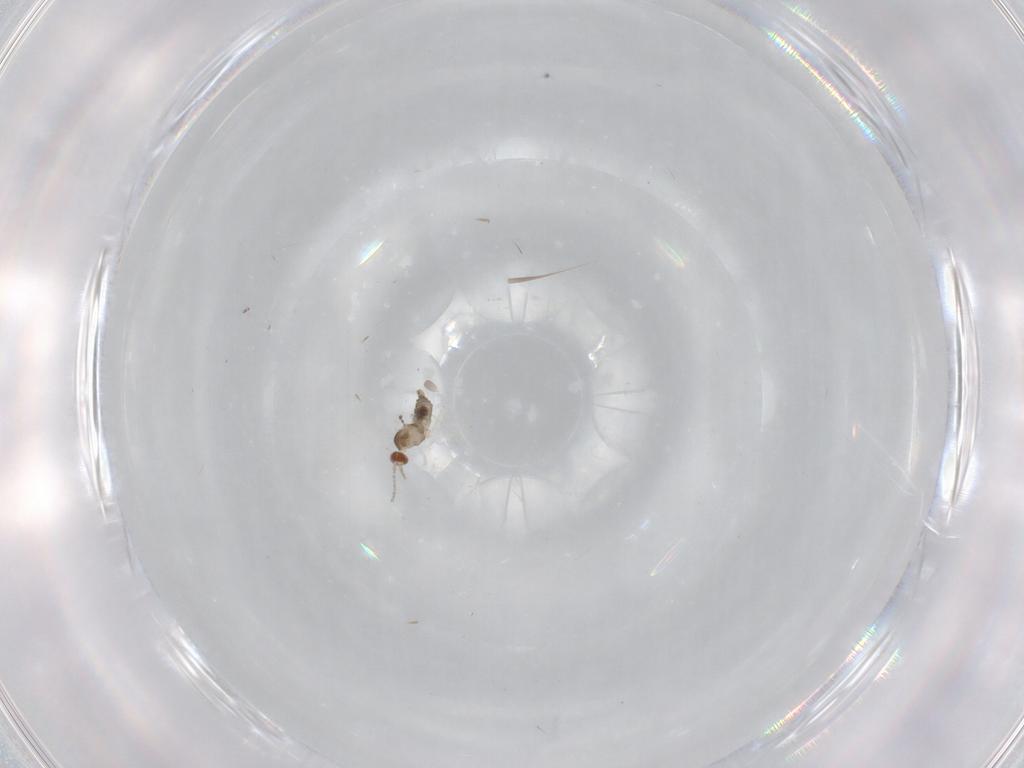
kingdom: Animalia
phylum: Arthropoda
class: Insecta
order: Diptera
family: Cecidomyiidae
